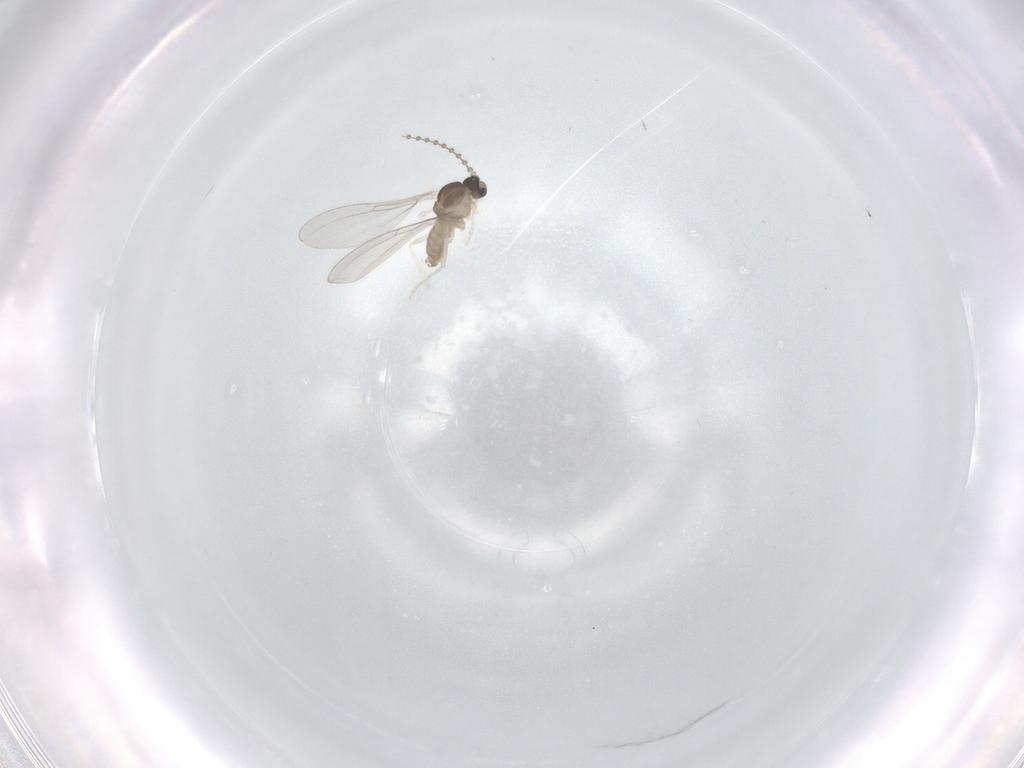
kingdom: Animalia
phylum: Arthropoda
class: Insecta
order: Diptera
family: Cecidomyiidae
